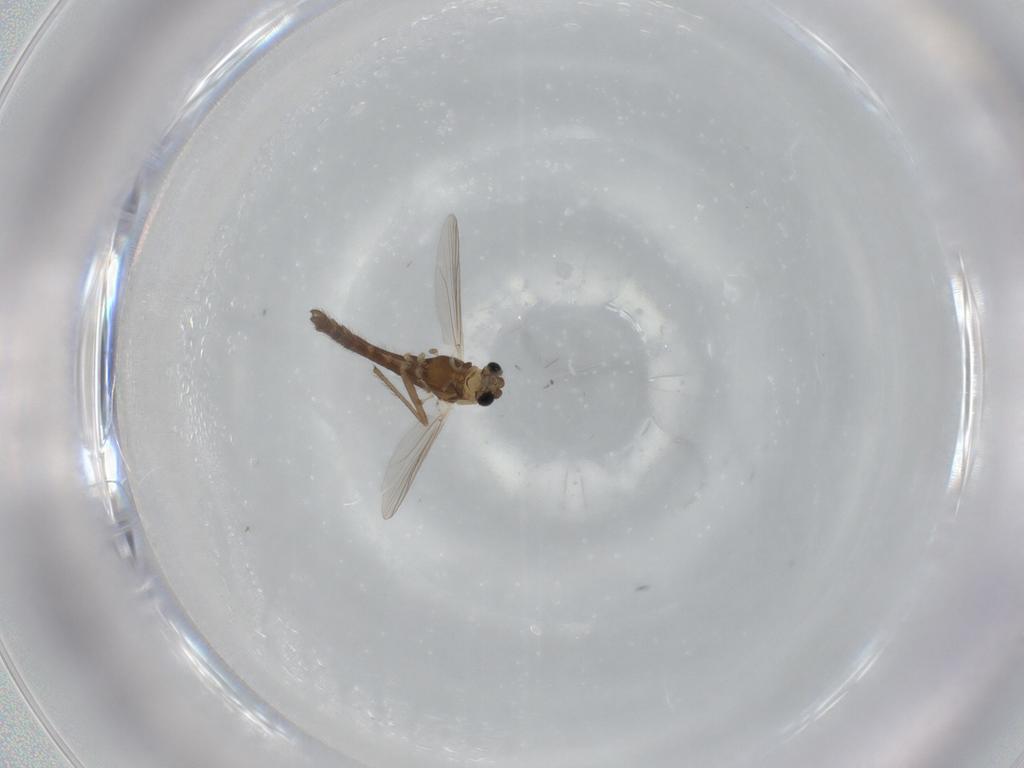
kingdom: Animalia
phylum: Arthropoda
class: Insecta
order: Diptera
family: Chironomidae
